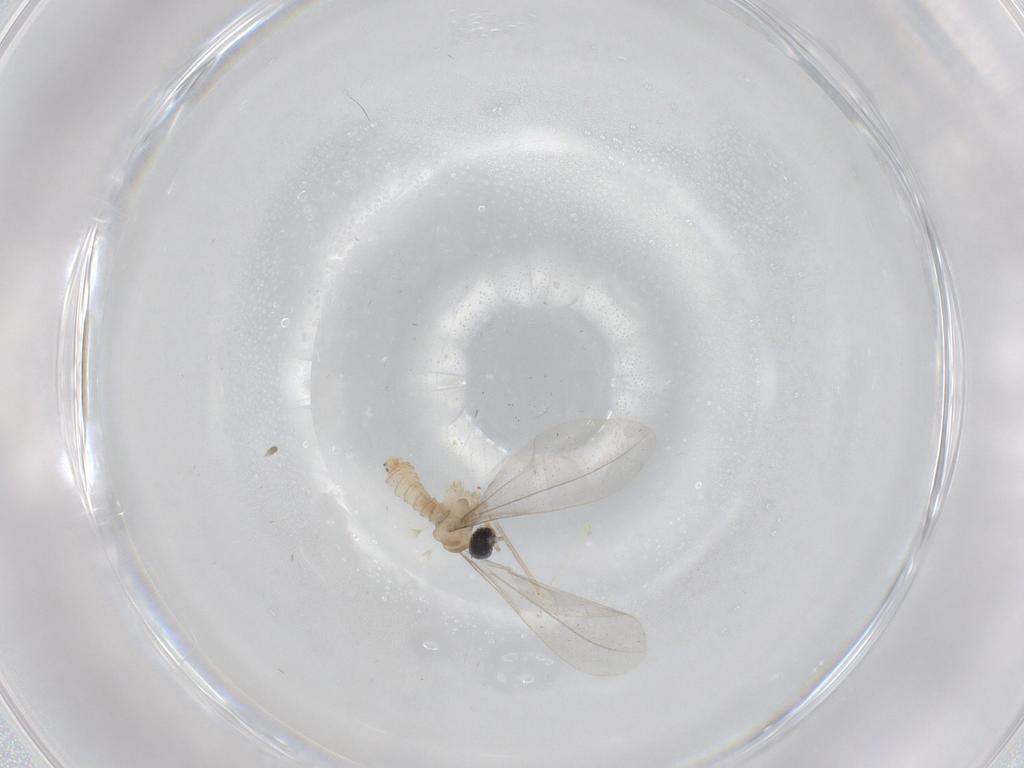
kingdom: Animalia
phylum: Arthropoda
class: Insecta
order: Diptera
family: Cecidomyiidae
